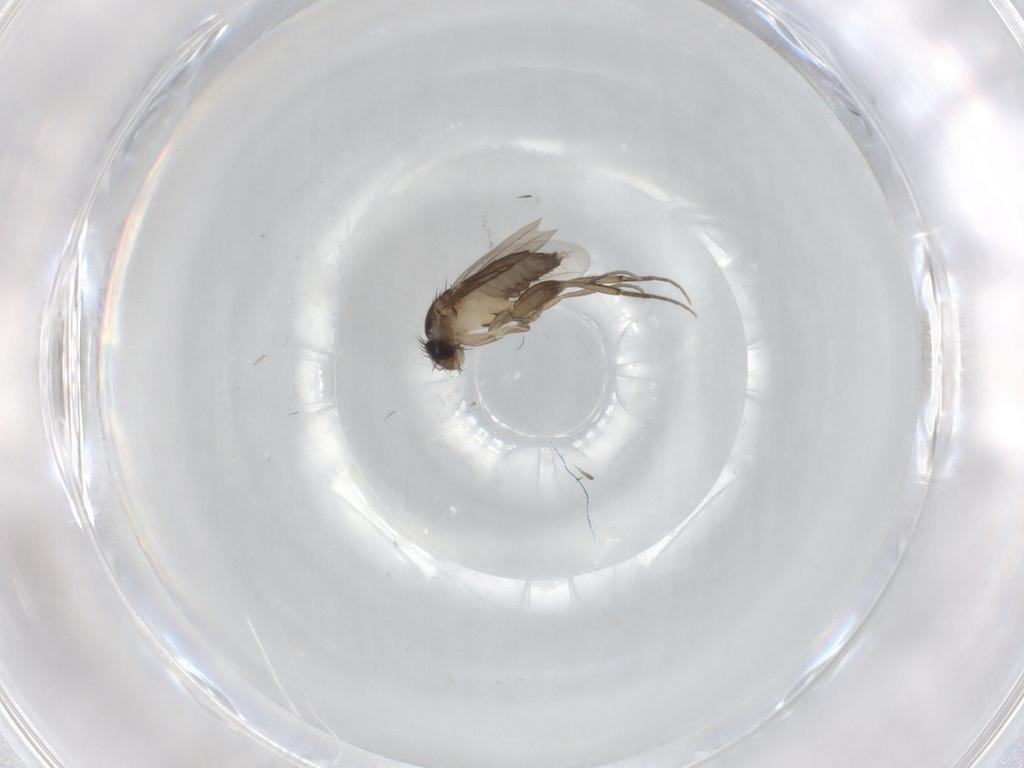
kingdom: Animalia
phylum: Arthropoda
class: Insecta
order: Diptera
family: Phoridae
